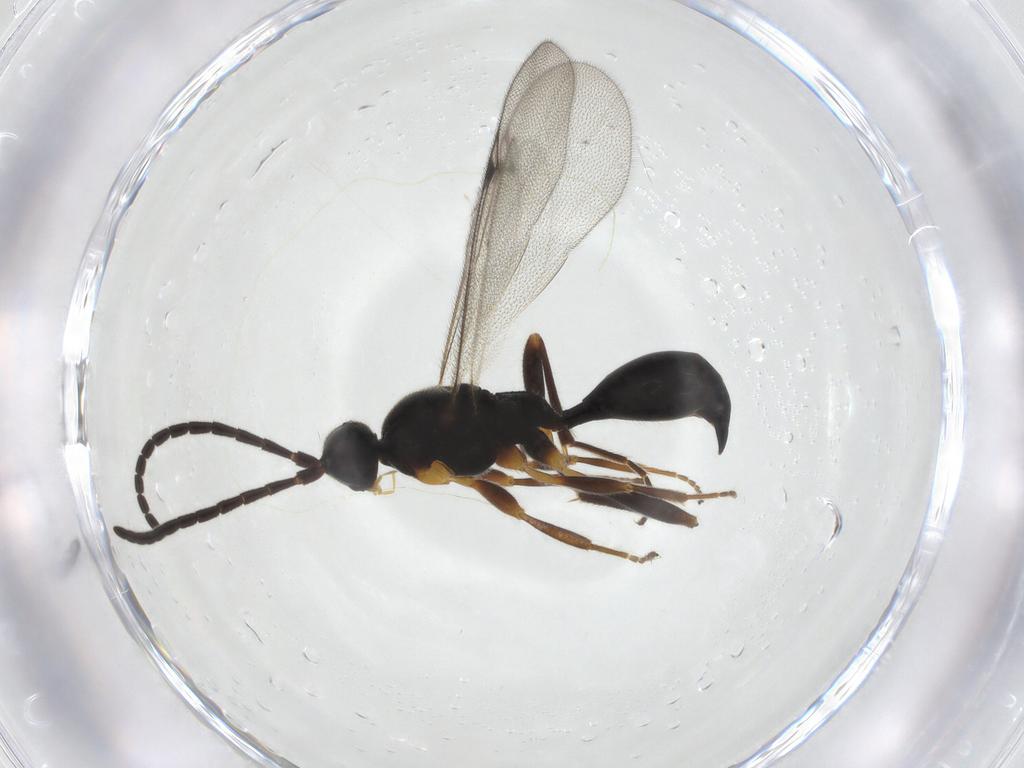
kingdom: Animalia
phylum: Arthropoda
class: Insecta
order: Hymenoptera
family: Proctotrupidae
